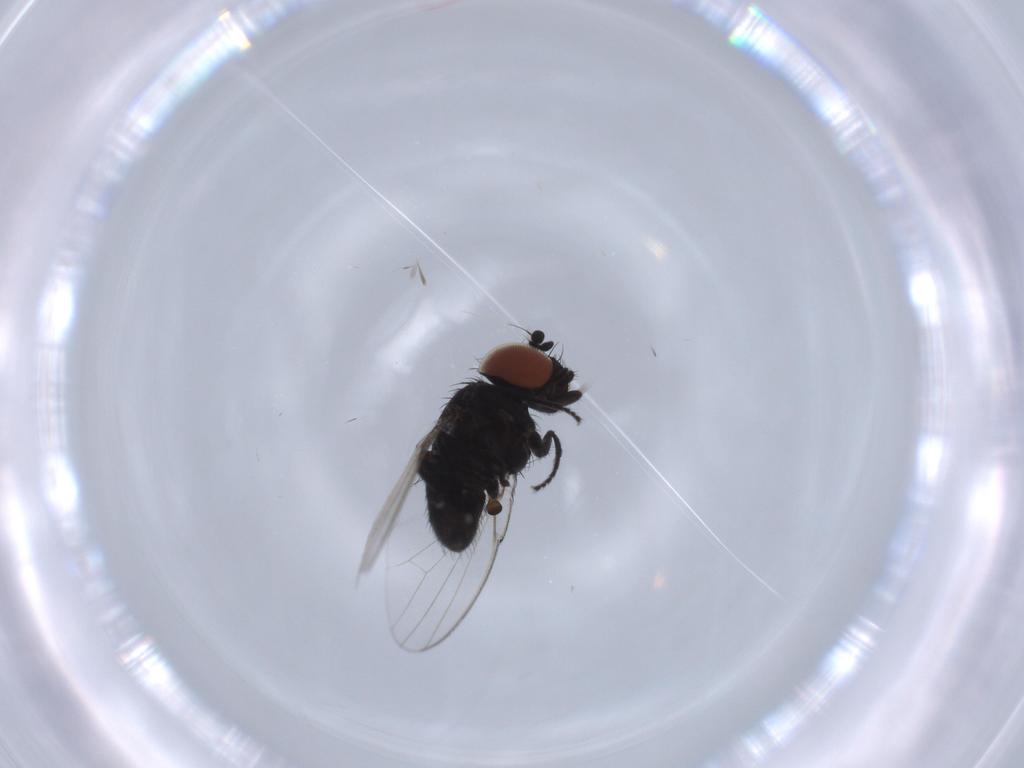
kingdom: Animalia
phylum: Arthropoda
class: Insecta
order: Diptera
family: Milichiidae
